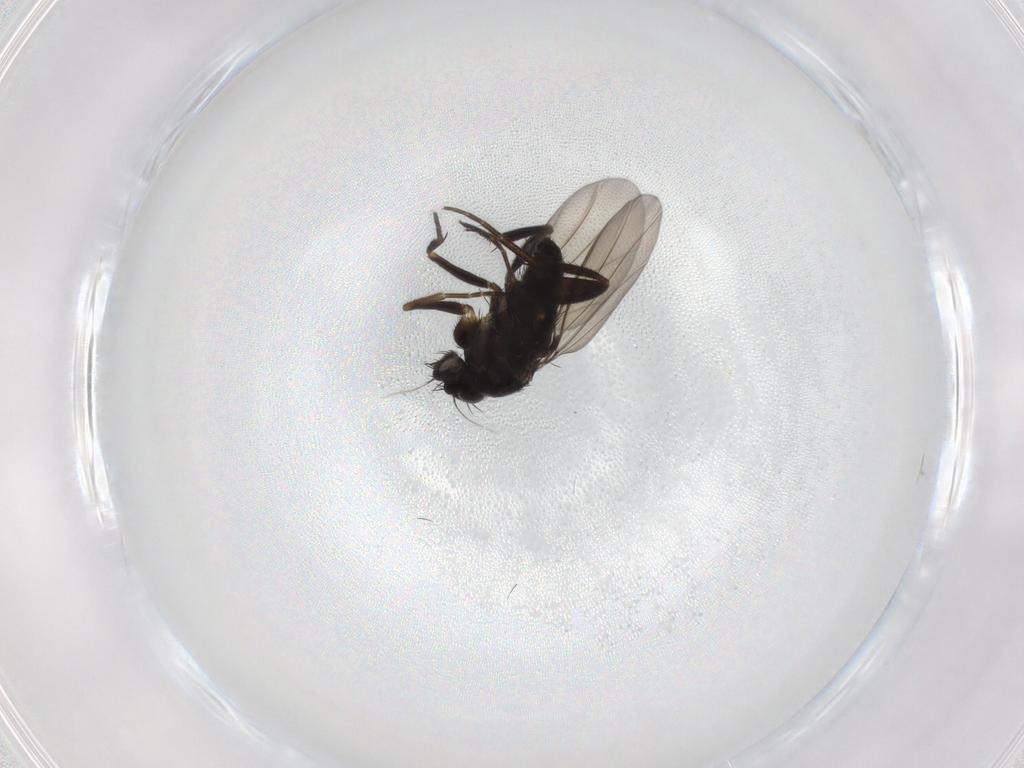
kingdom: Animalia
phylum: Arthropoda
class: Insecta
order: Diptera
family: Phoridae
